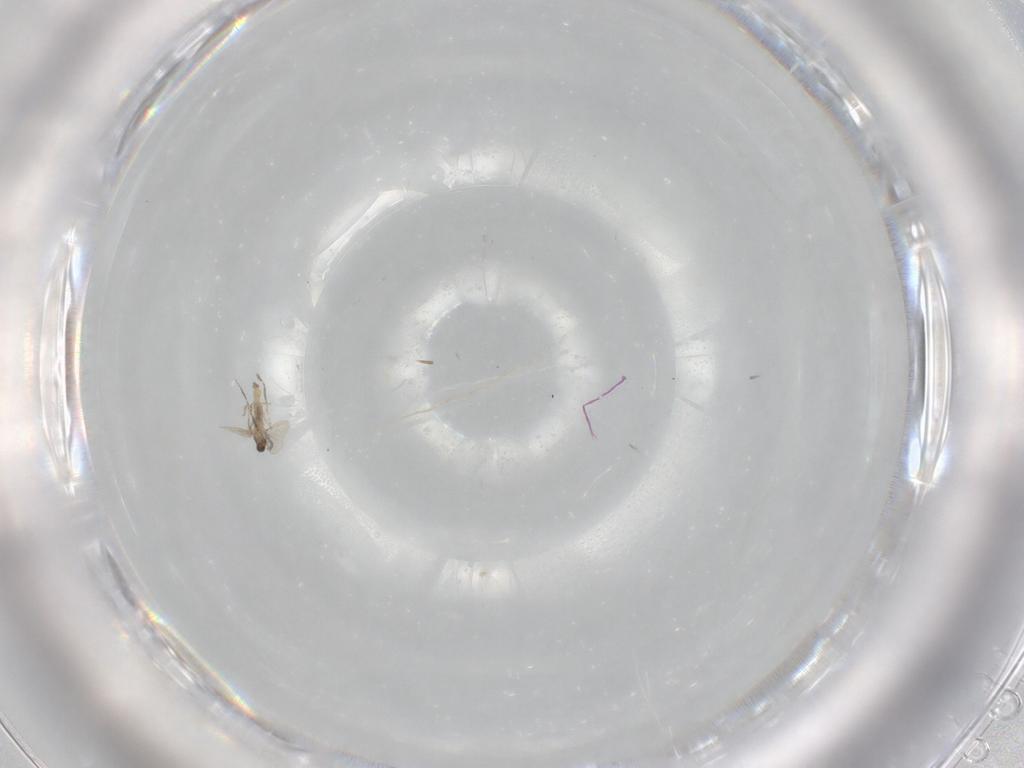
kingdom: Animalia
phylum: Arthropoda
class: Insecta
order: Diptera
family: Cecidomyiidae
